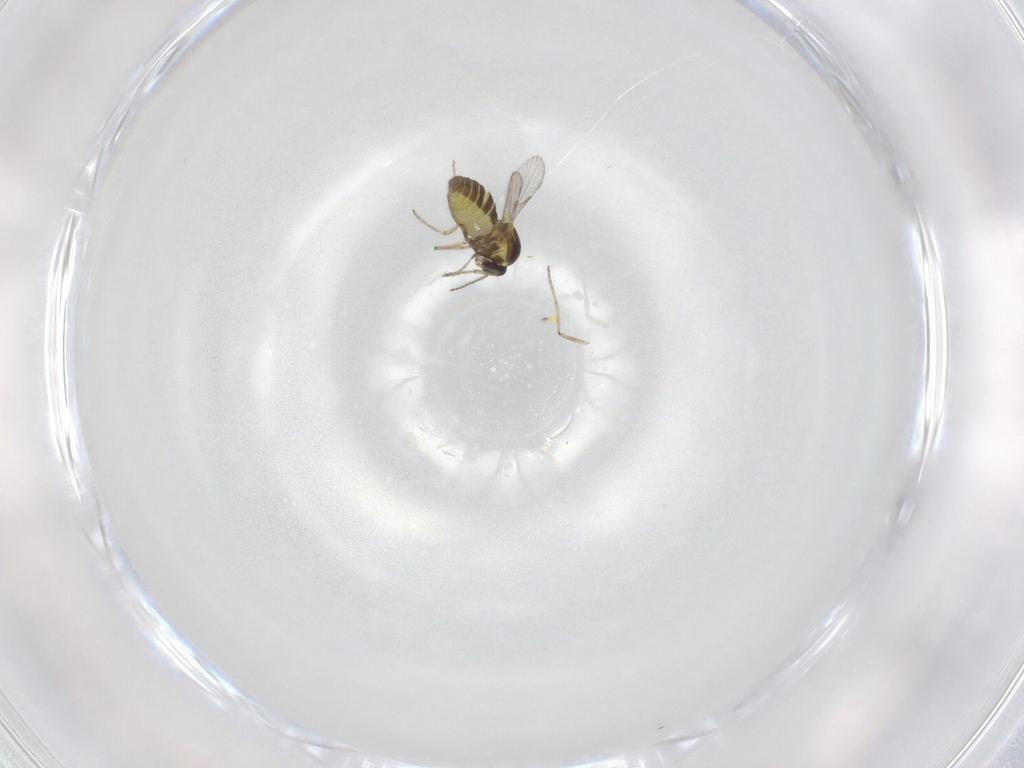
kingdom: Animalia
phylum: Arthropoda
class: Insecta
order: Diptera
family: Ceratopogonidae
